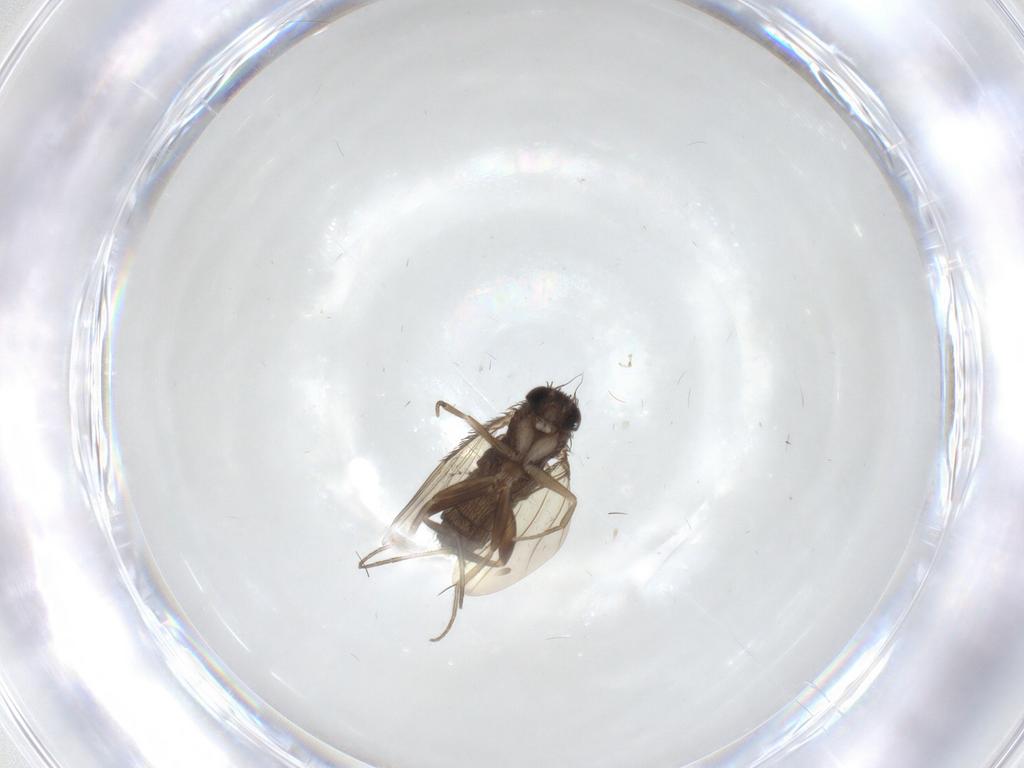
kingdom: Animalia
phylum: Arthropoda
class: Insecta
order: Diptera
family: Phoridae
